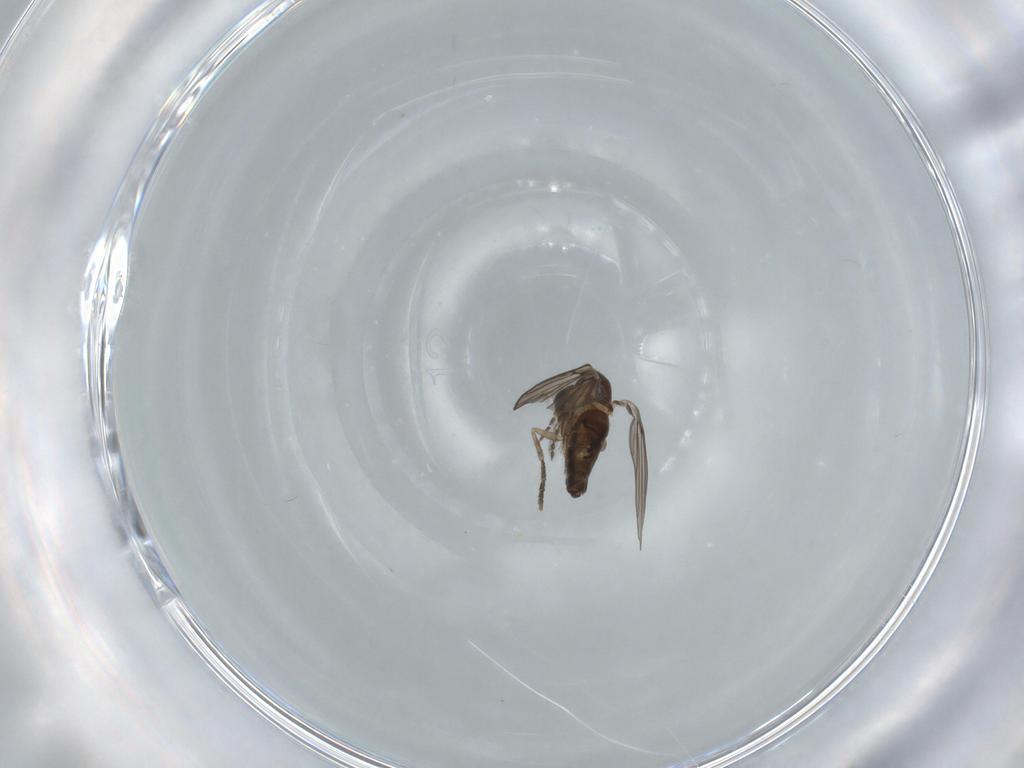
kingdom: Animalia
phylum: Arthropoda
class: Insecta
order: Diptera
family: Psychodidae
